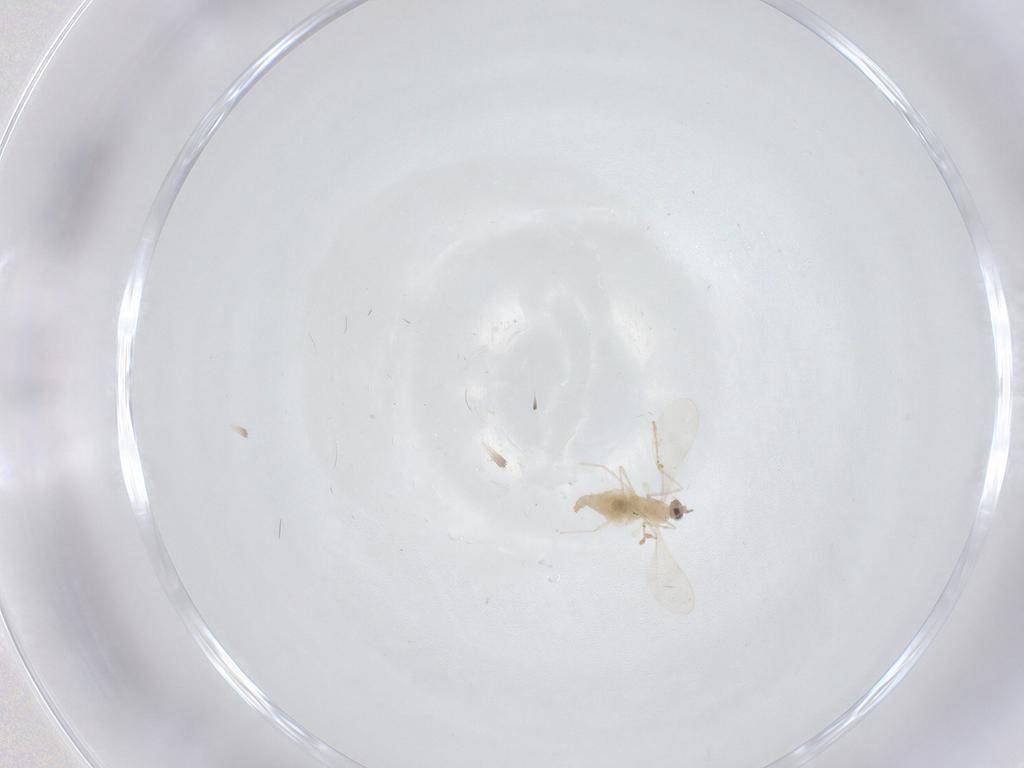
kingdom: Animalia
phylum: Arthropoda
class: Insecta
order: Diptera
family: Cecidomyiidae
